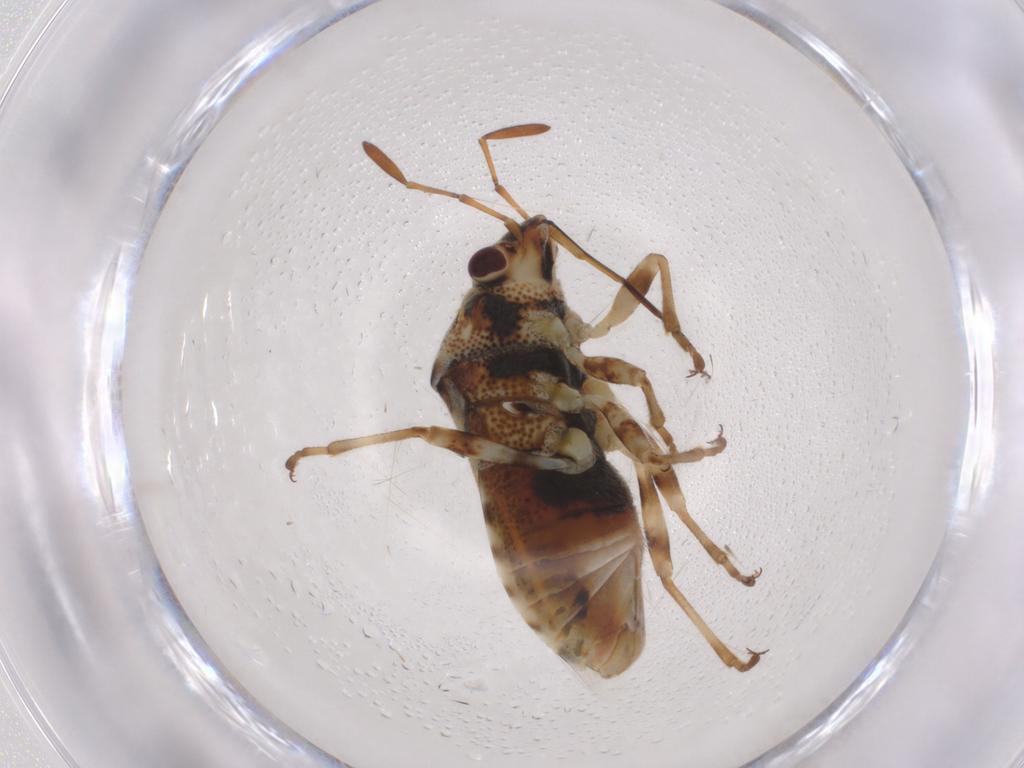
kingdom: Animalia
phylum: Arthropoda
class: Insecta
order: Hemiptera
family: Lygaeidae
